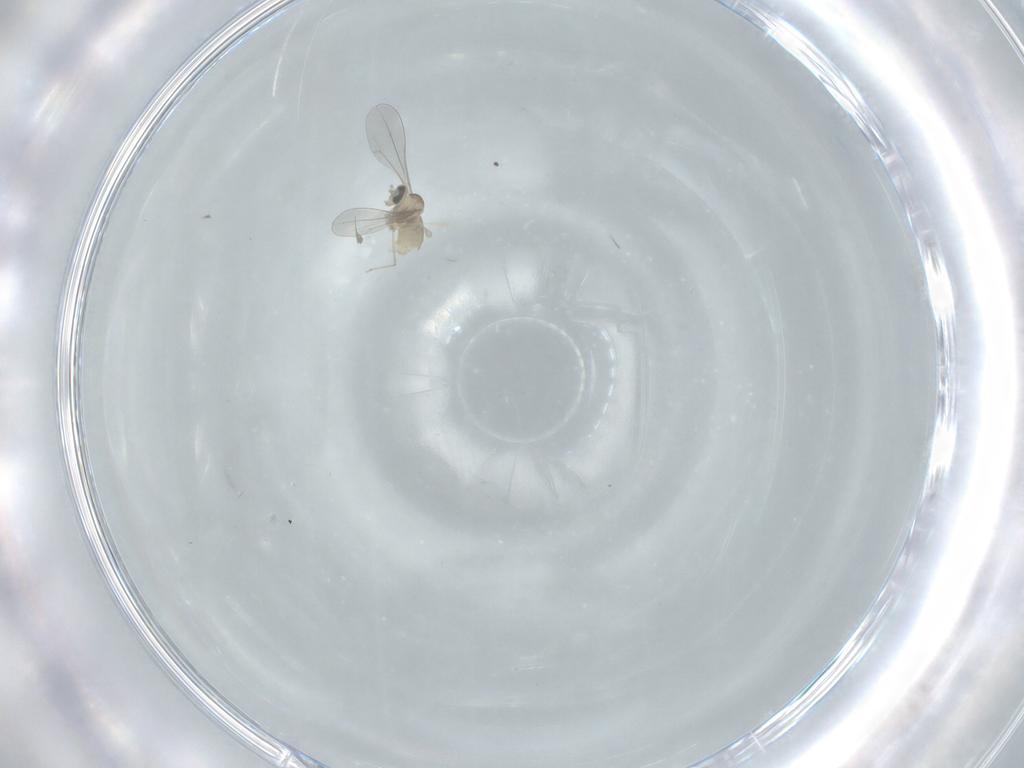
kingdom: Animalia
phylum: Arthropoda
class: Insecta
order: Diptera
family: Cecidomyiidae
